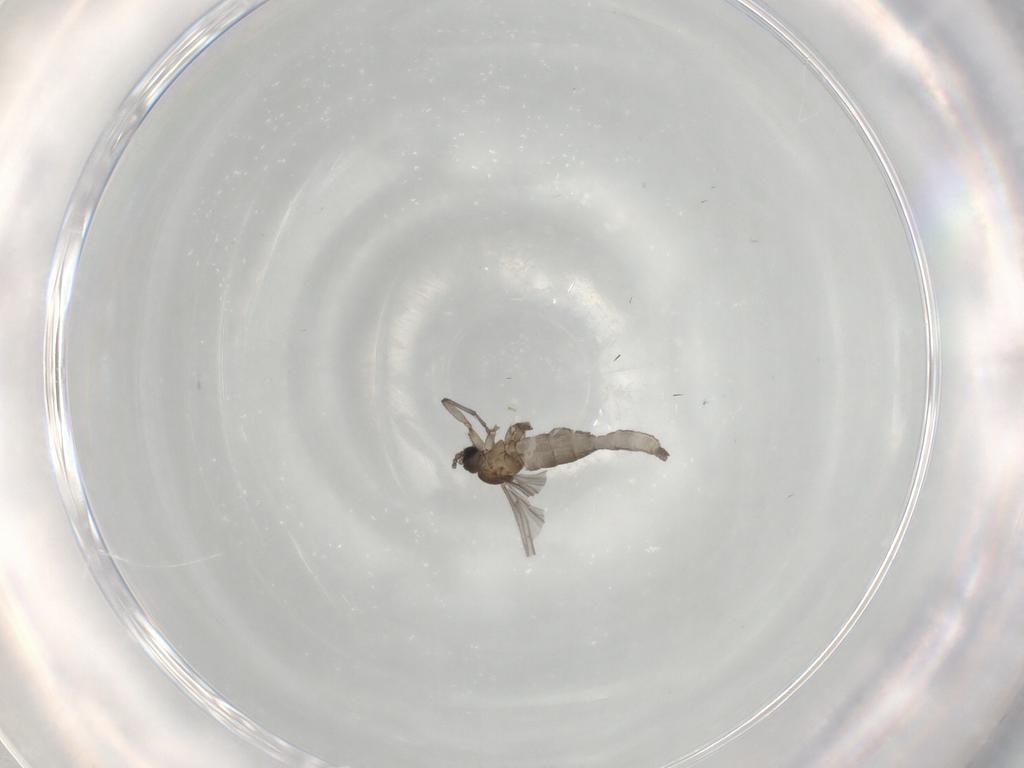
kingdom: Animalia
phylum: Arthropoda
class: Insecta
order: Diptera
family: Sciaridae
